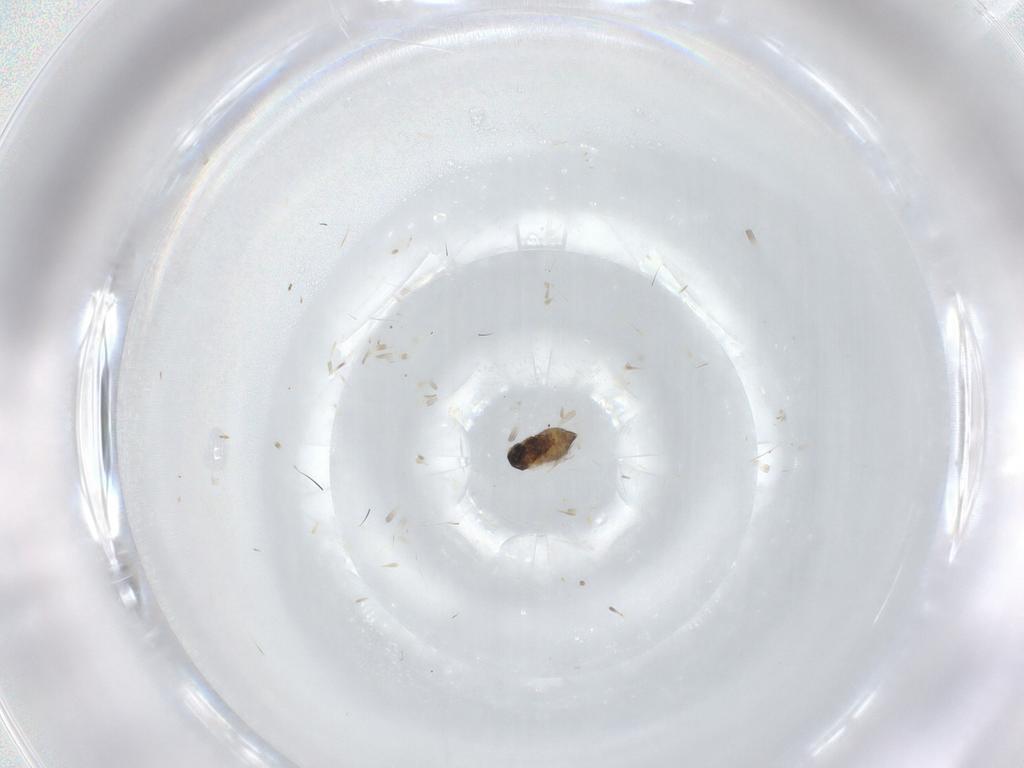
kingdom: Animalia
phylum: Arthropoda
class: Insecta
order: Diptera
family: Cecidomyiidae
